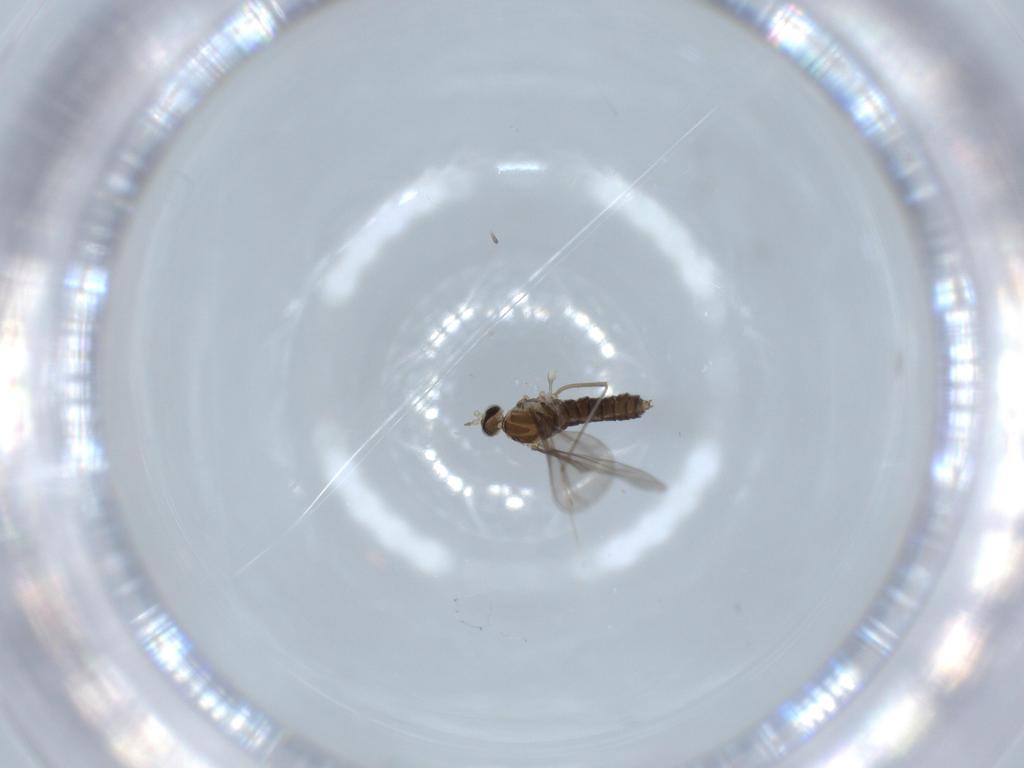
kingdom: Animalia
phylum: Arthropoda
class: Insecta
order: Diptera
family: Cecidomyiidae
